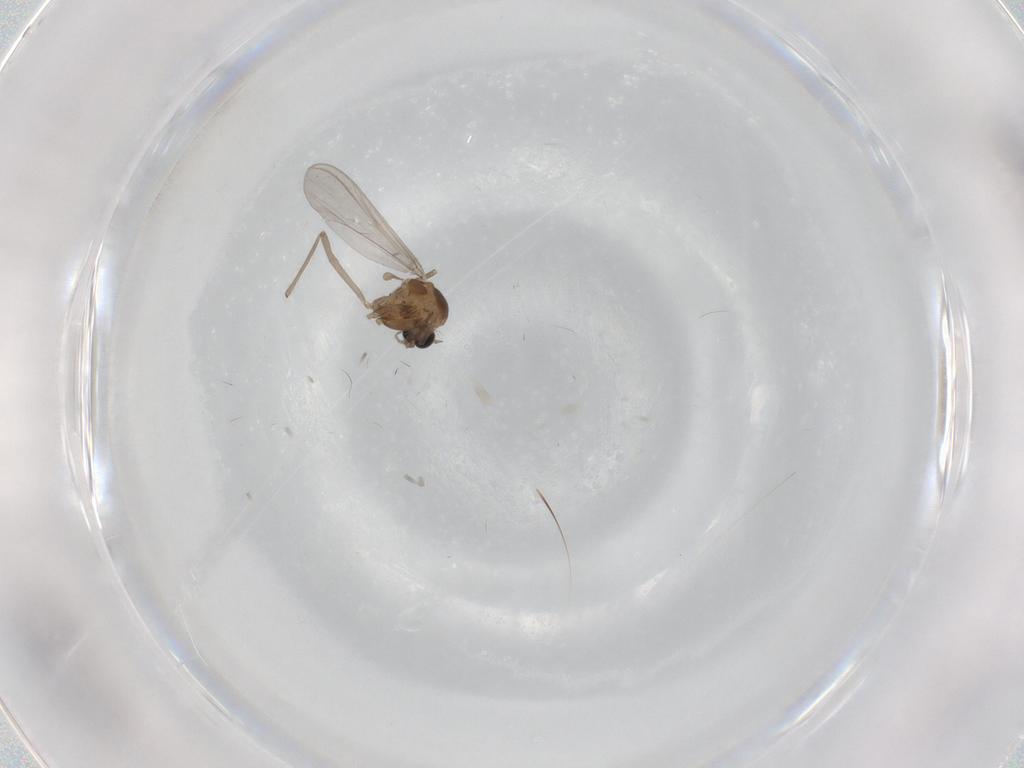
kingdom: Animalia
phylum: Arthropoda
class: Insecta
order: Diptera
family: Chironomidae
